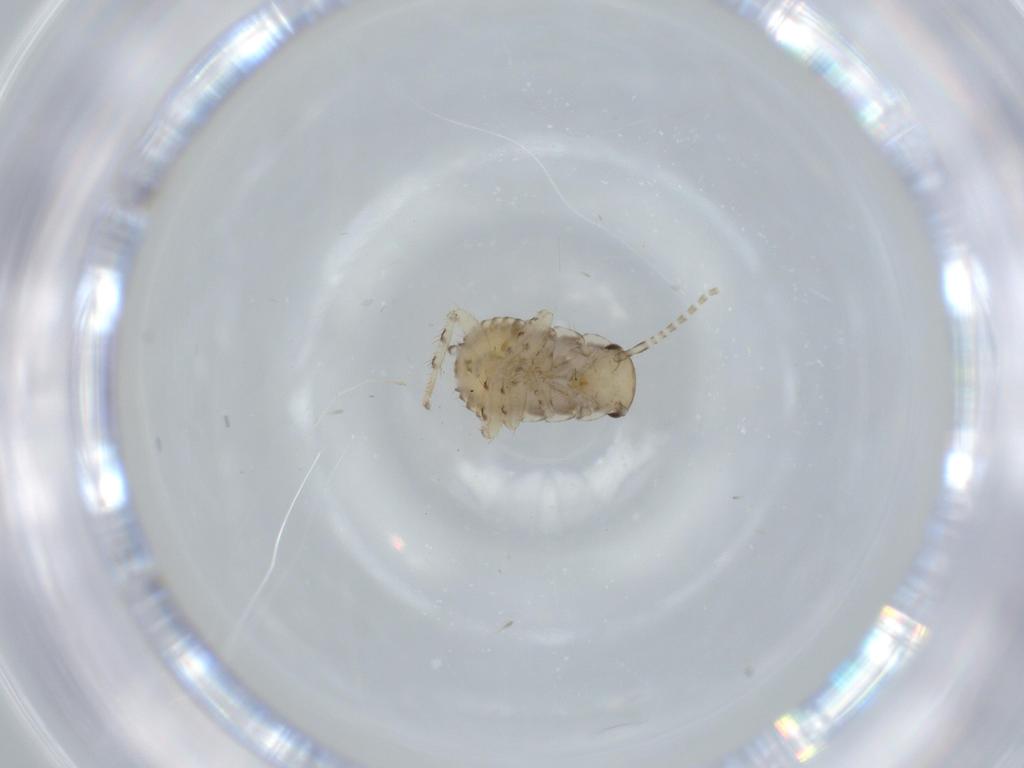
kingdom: Animalia
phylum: Arthropoda
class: Insecta
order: Blattodea
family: Ectobiidae
